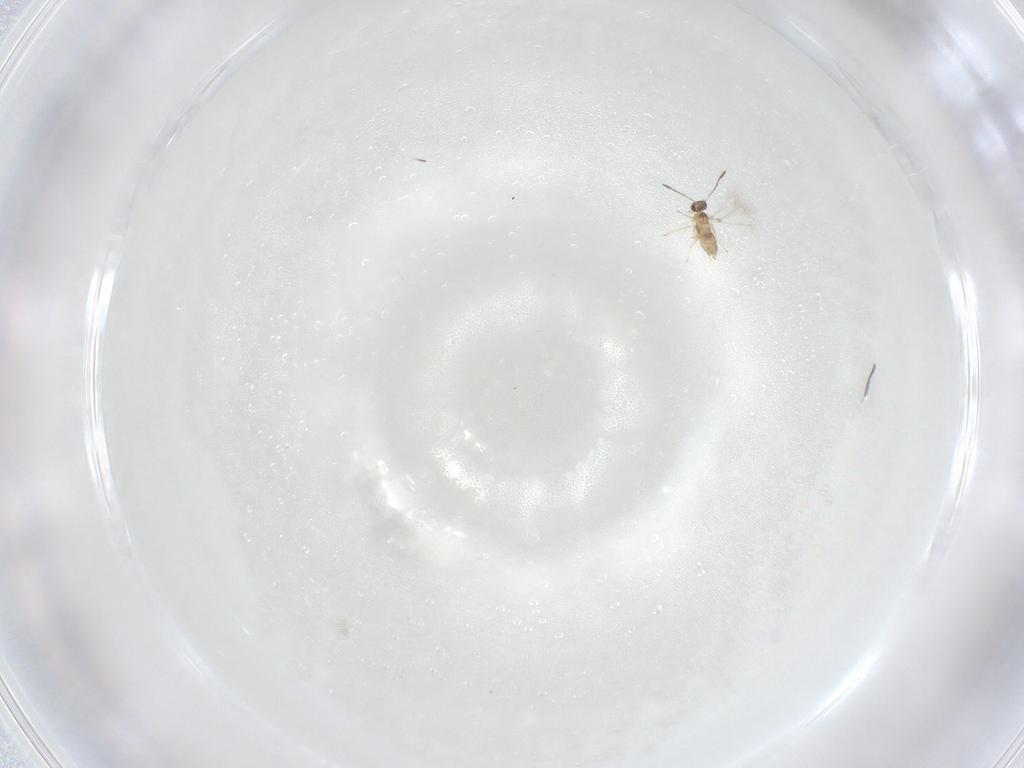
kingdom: Animalia
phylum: Arthropoda
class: Insecta
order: Hymenoptera
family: Mymaridae
